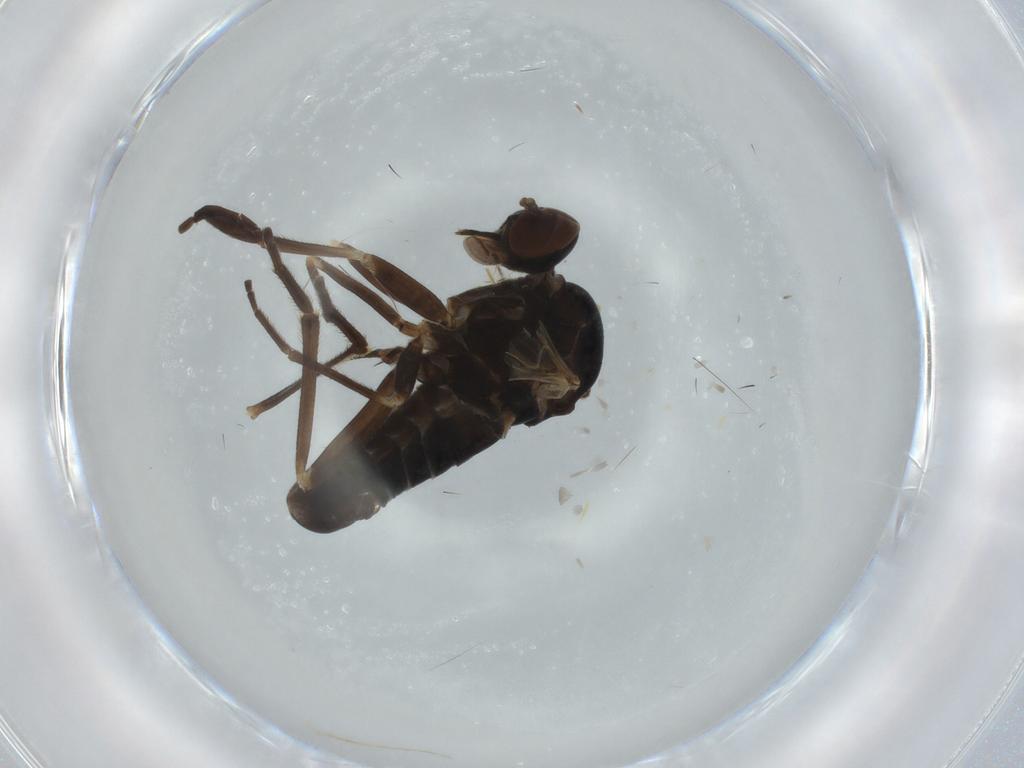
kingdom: Animalia
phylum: Arthropoda
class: Insecta
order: Diptera
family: Empididae
